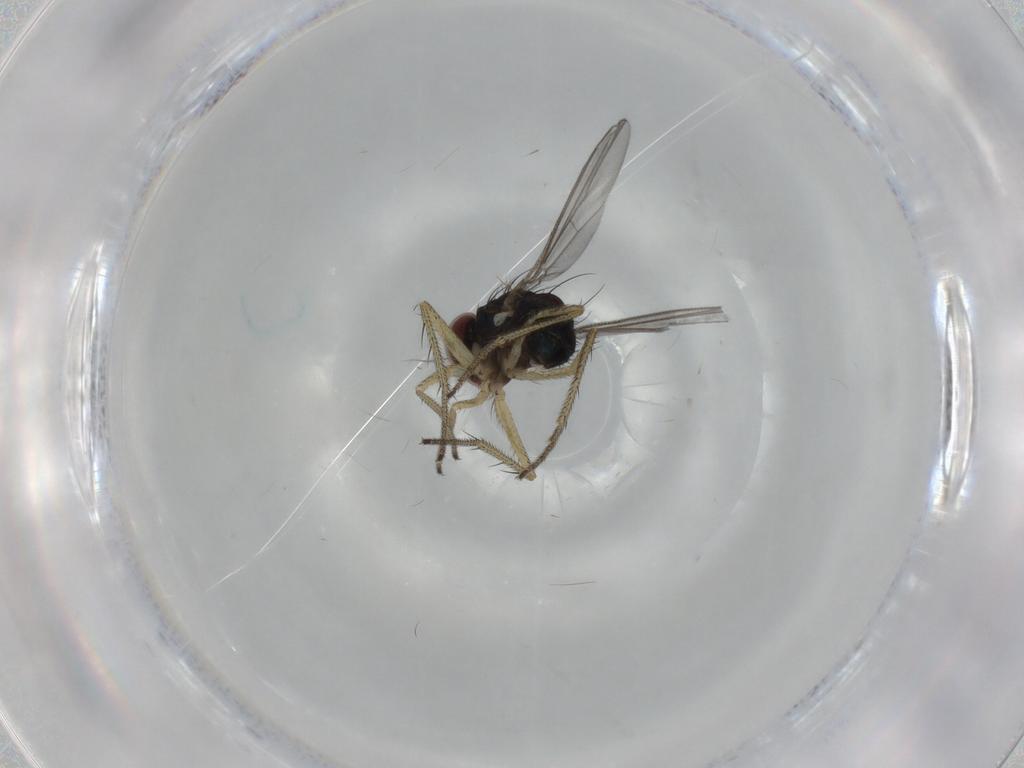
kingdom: Animalia
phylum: Arthropoda
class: Insecta
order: Diptera
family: Dolichopodidae
